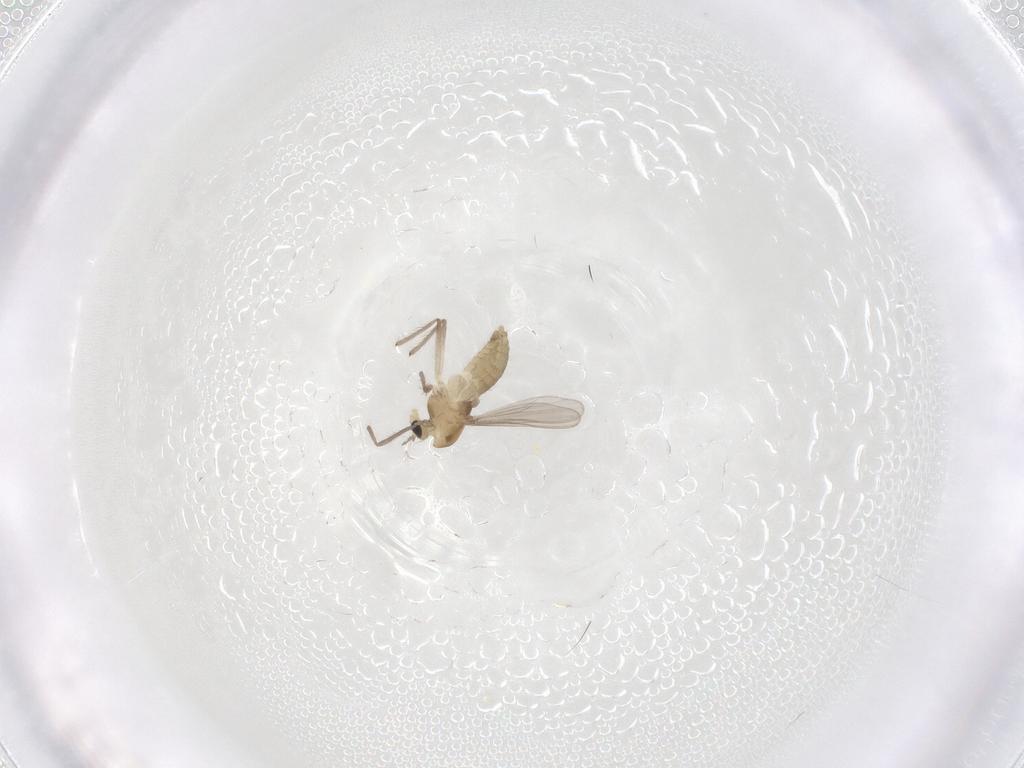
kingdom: Animalia
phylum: Arthropoda
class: Insecta
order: Diptera
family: Chironomidae
